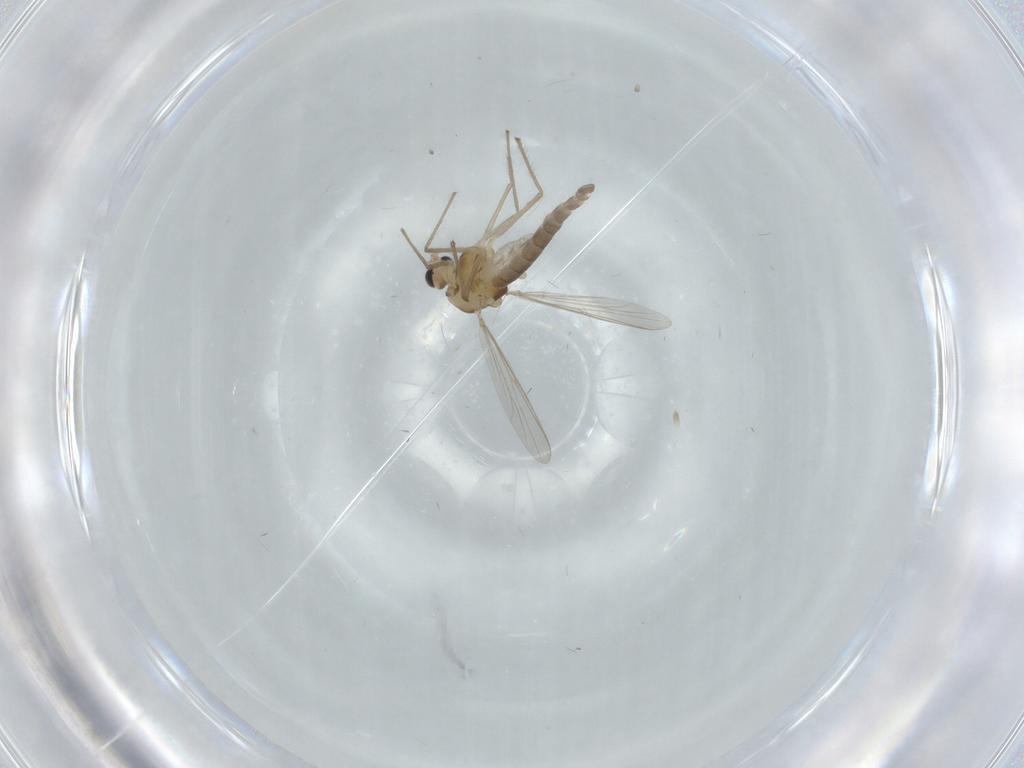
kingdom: Animalia
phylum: Arthropoda
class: Insecta
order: Diptera
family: Chironomidae
